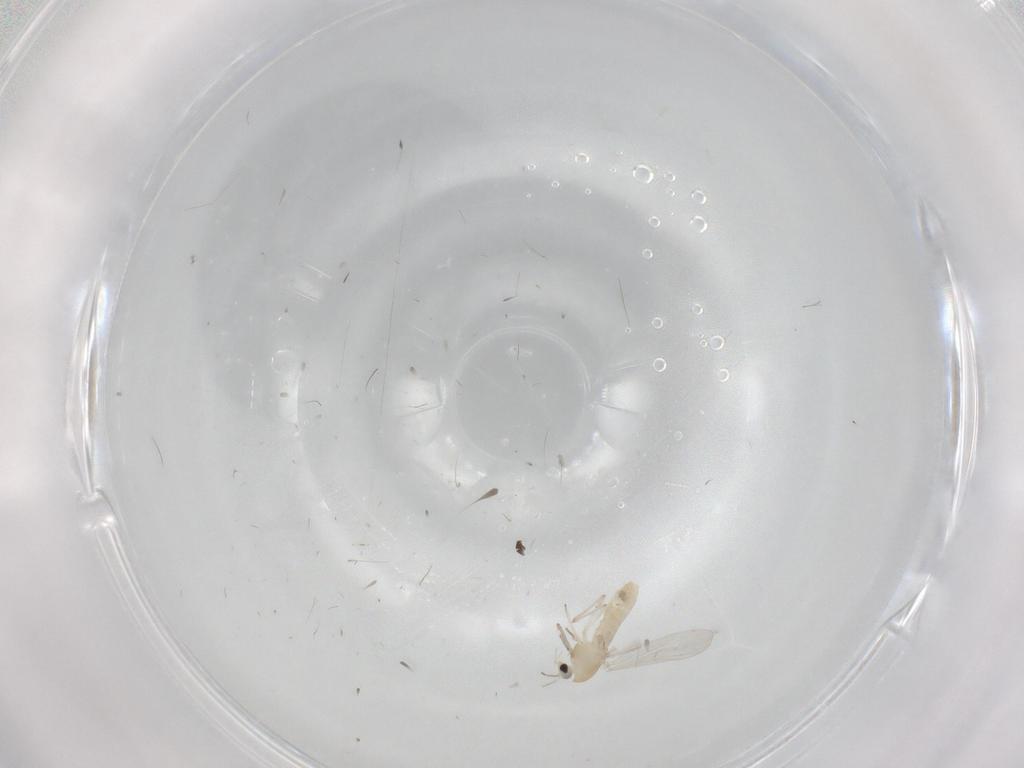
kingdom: Animalia
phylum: Arthropoda
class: Insecta
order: Diptera
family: Chironomidae
